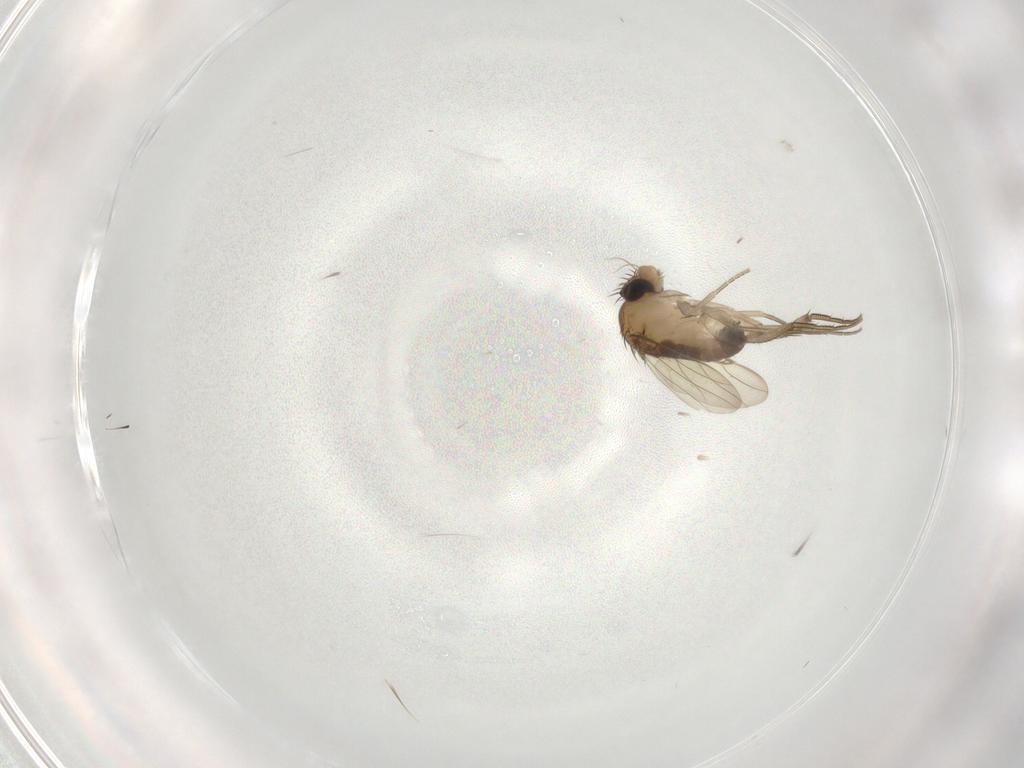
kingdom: Animalia
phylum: Arthropoda
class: Insecta
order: Diptera
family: Phoridae
